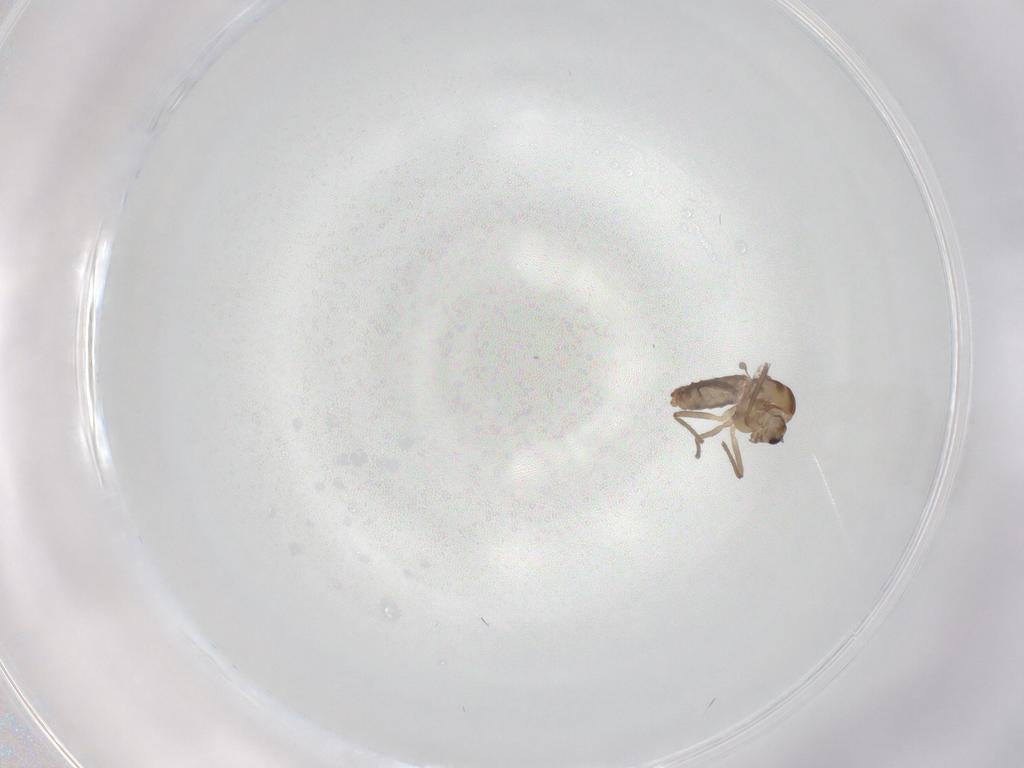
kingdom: Animalia
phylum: Arthropoda
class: Insecta
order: Diptera
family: Chironomidae
